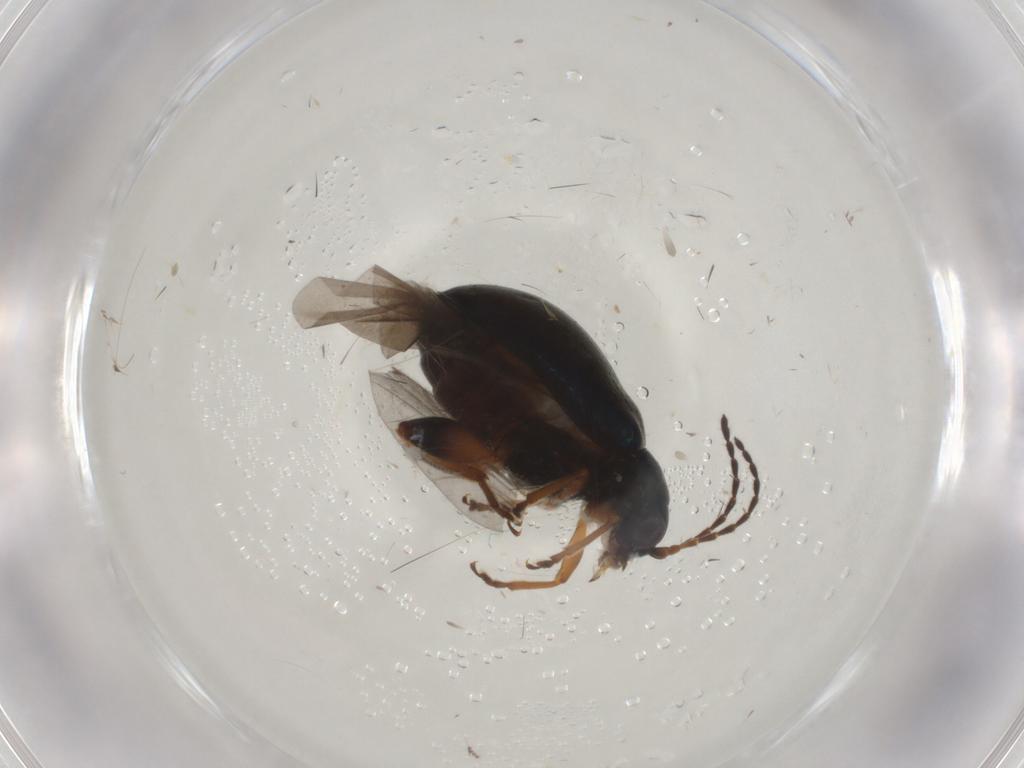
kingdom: Animalia
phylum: Arthropoda
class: Insecta
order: Coleoptera
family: Chrysomelidae
